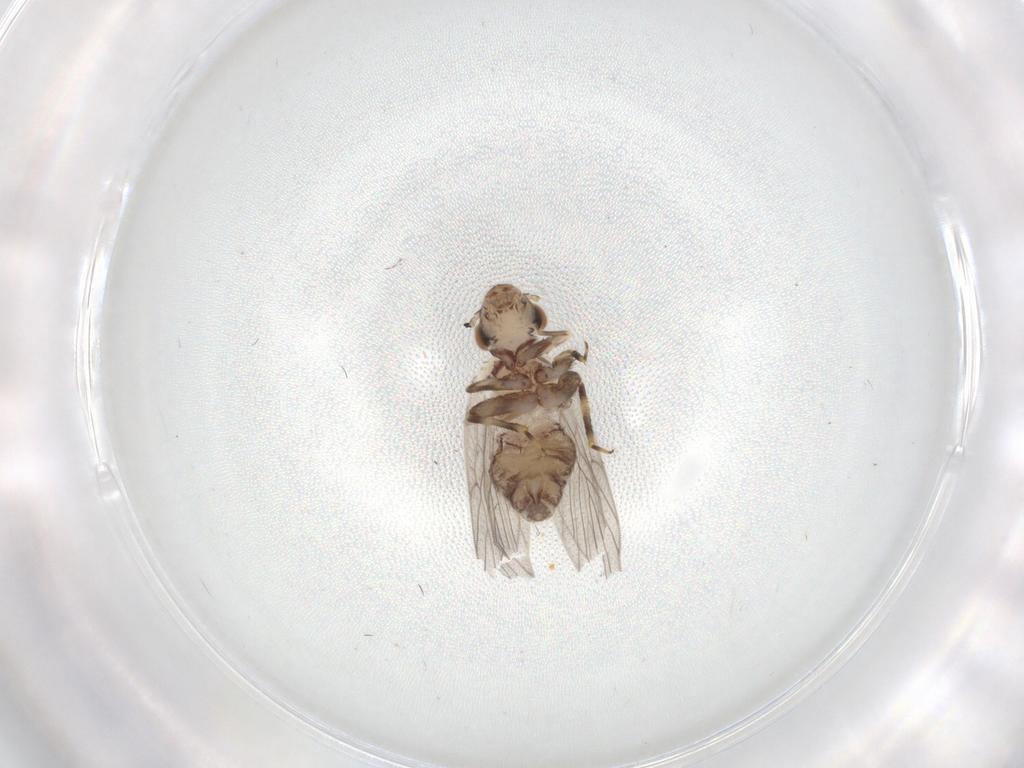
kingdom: Animalia
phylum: Arthropoda
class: Insecta
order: Psocodea
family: Lepidopsocidae
